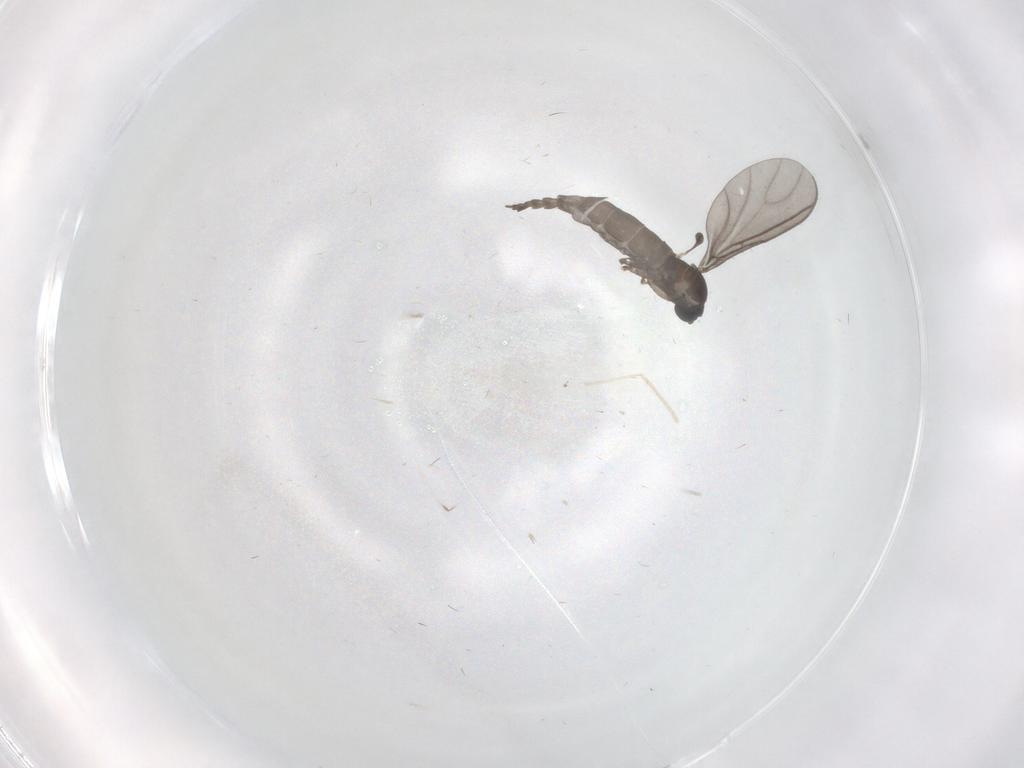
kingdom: Animalia
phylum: Arthropoda
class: Insecta
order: Diptera
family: Sciaridae
